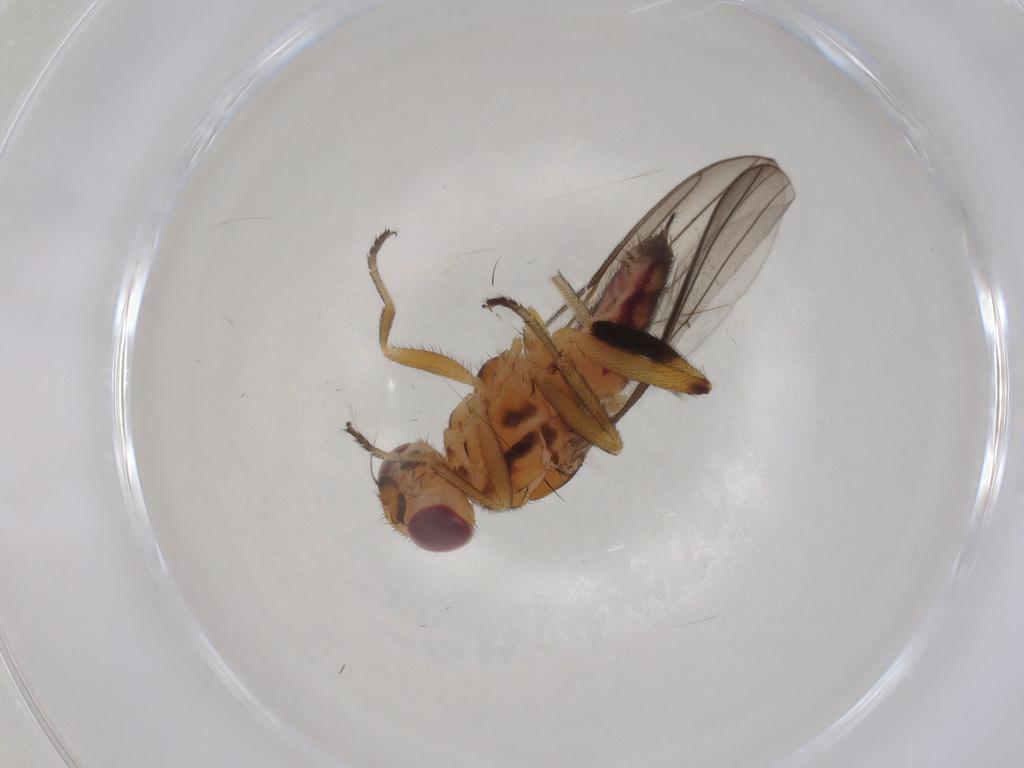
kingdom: Animalia
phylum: Arthropoda
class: Insecta
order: Diptera
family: Chloropidae
